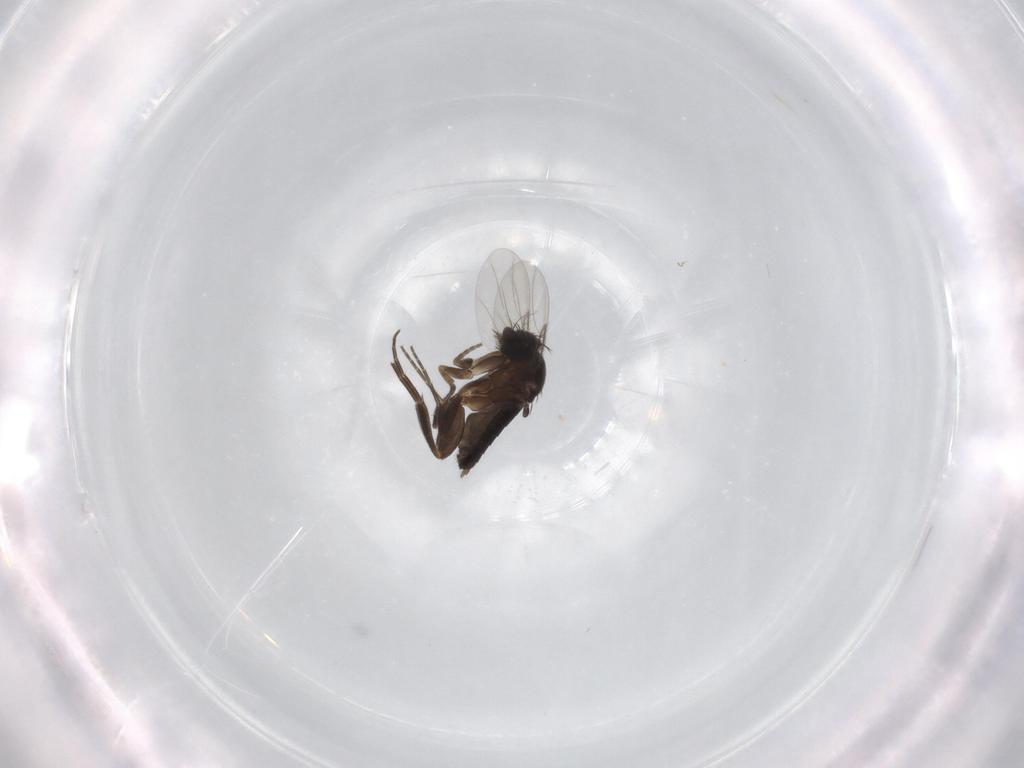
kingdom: Animalia
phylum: Arthropoda
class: Insecta
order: Diptera
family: Phoridae
